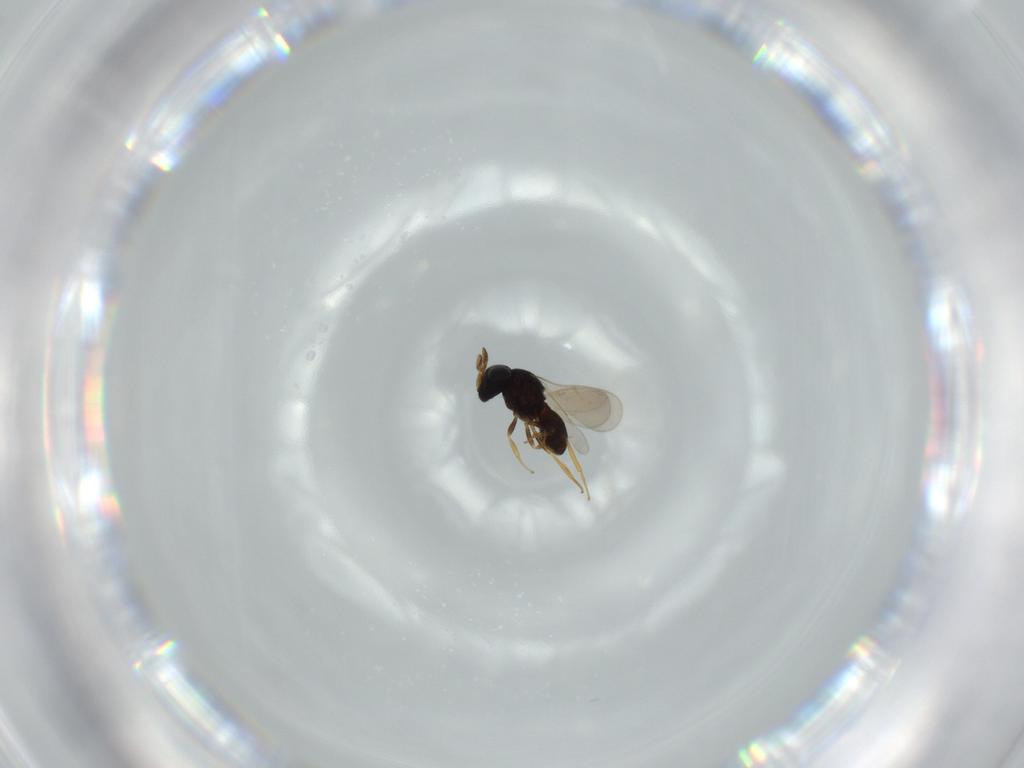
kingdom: Animalia
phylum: Arthropoda
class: Insecta
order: Hymenoptera
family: Scelionidae
